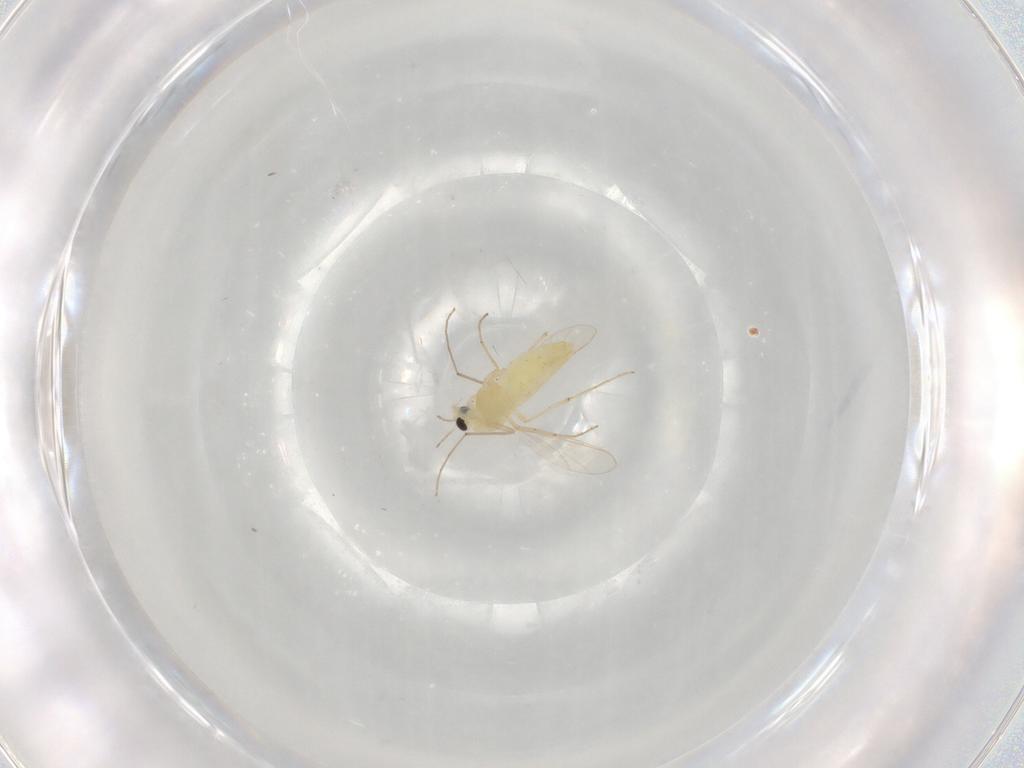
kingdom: Animalia
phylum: Arthropoda
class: Insecta
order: Diptera
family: Chironomidae
